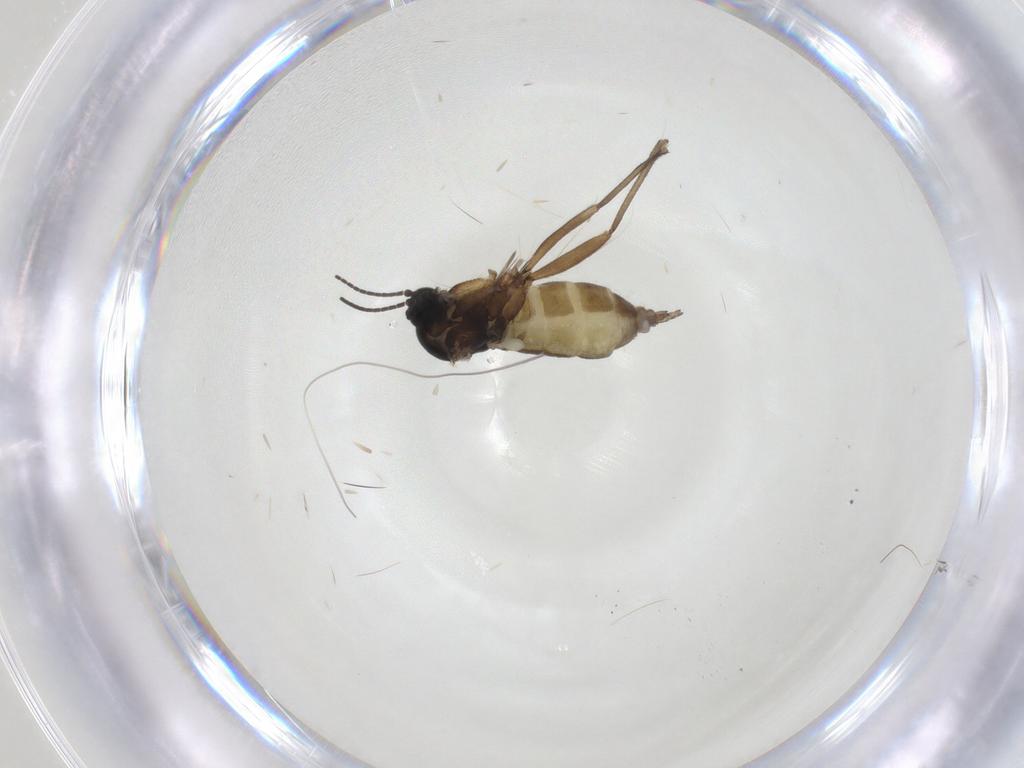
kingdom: Animalia
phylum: Arthropoda
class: Insecta
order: Diptera
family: Sciaridae
